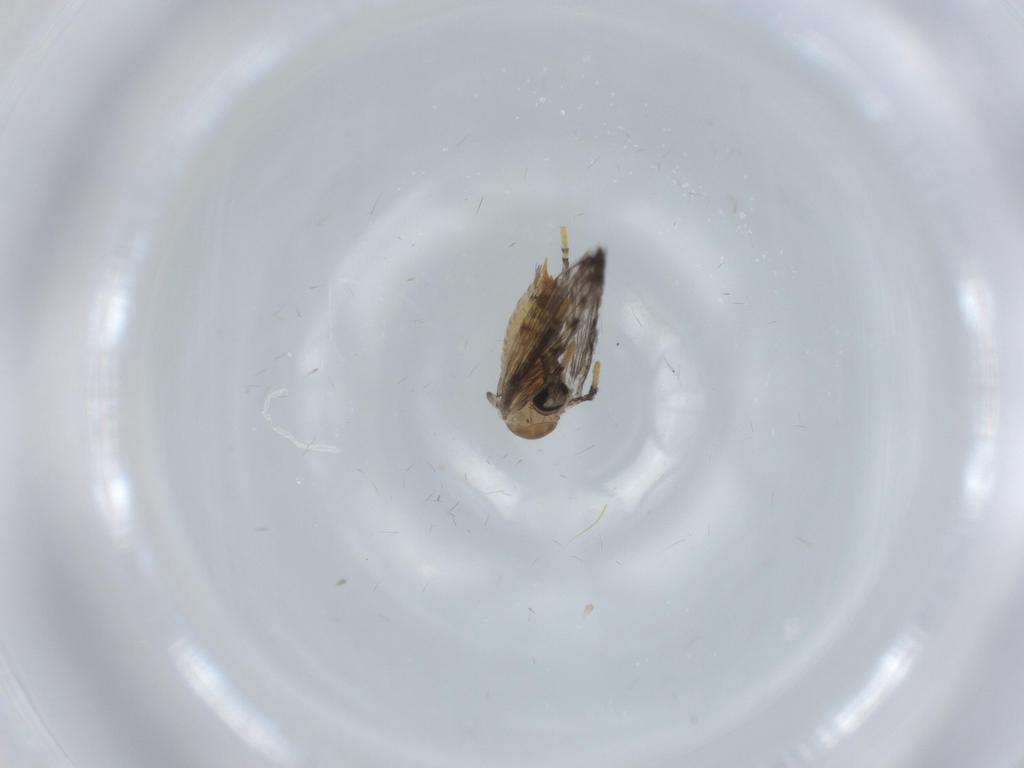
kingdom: Animalia
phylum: Arthropoda
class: Insecta
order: Diptera
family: Psychodidae
